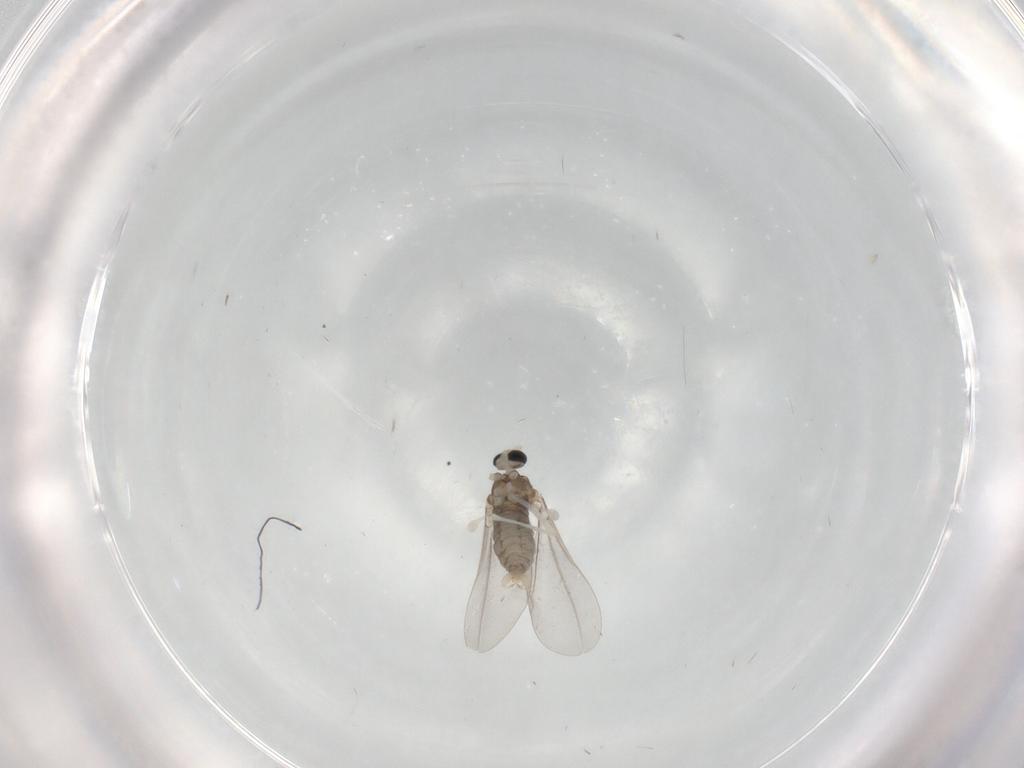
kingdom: Animalia
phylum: Arthropoda
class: Insecta
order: Diptera
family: Cecidomyiidae
